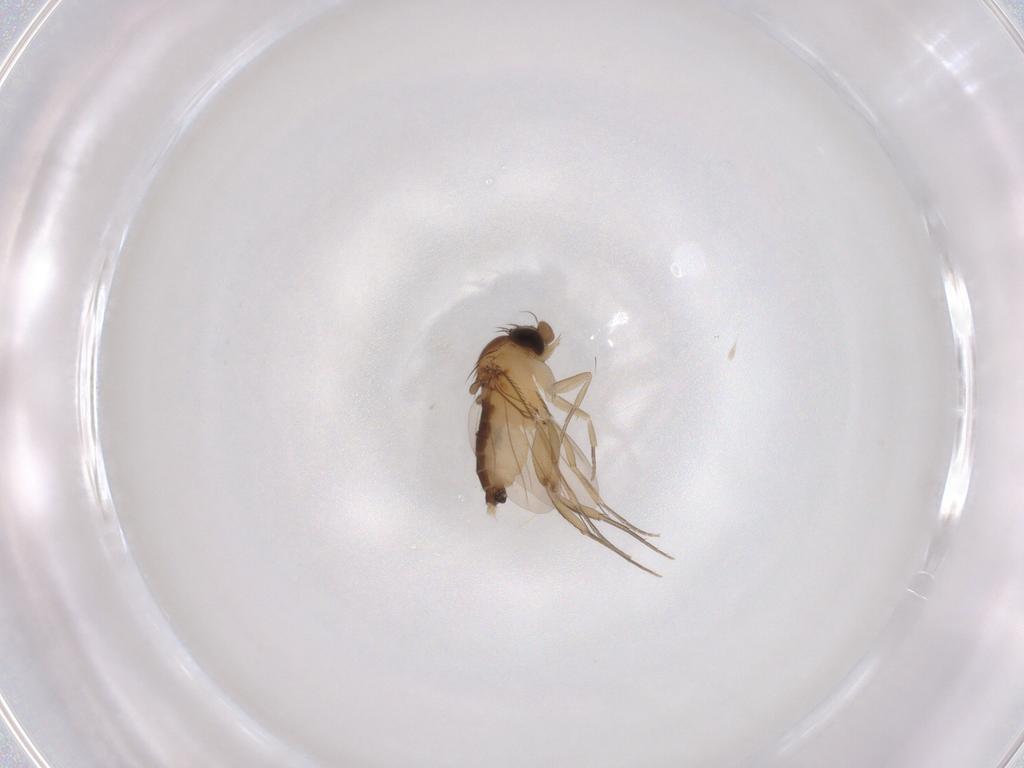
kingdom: Animalia
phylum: Arthropoda
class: Insecta
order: Diptera
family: Phoridae
